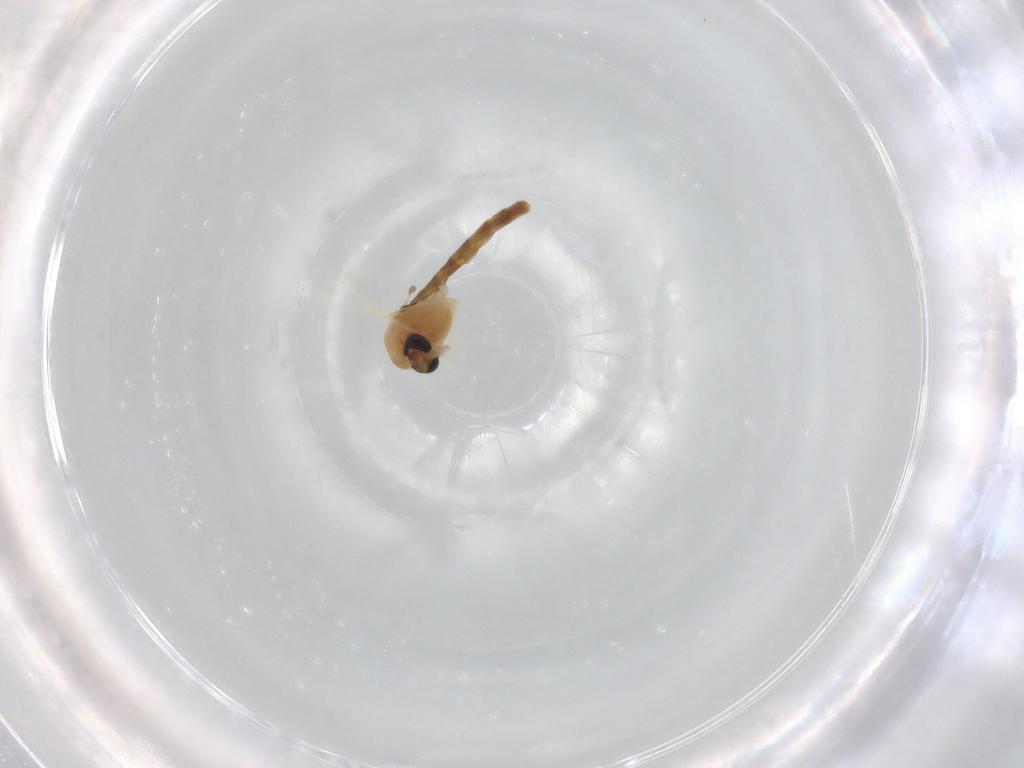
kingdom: Animalia
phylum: Arthropoda
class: Insecta
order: Diptera
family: Chironomidae
